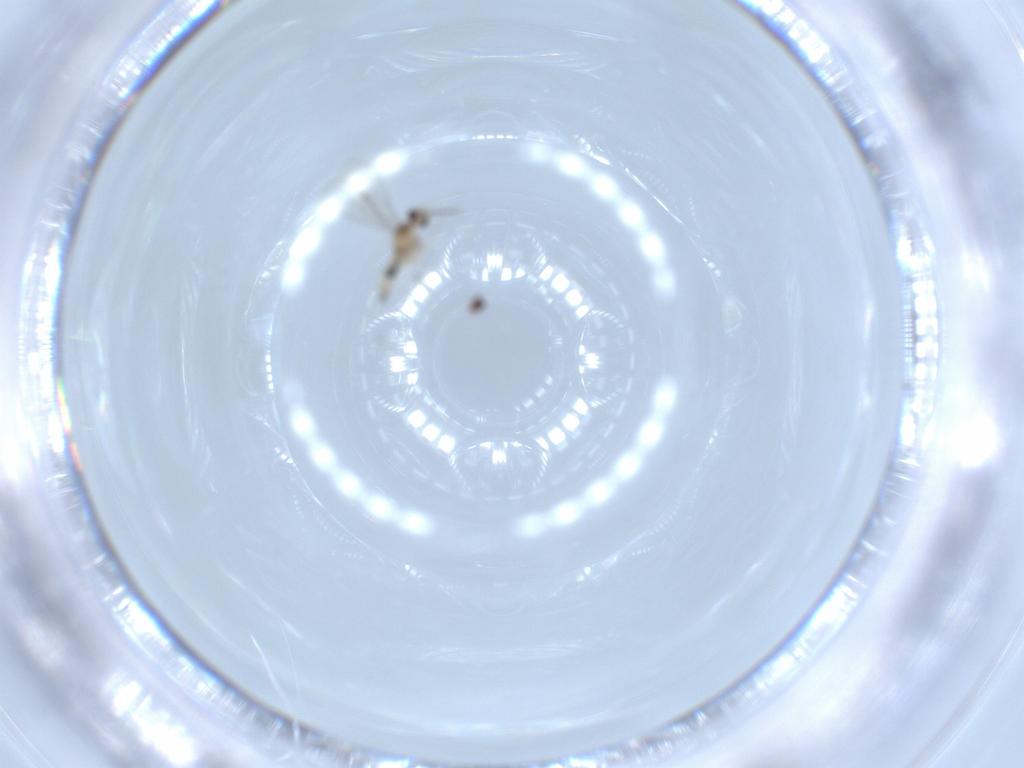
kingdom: Animalia
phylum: Arthropoda
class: Insecta
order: Diptera
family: Cecidomyiidae
